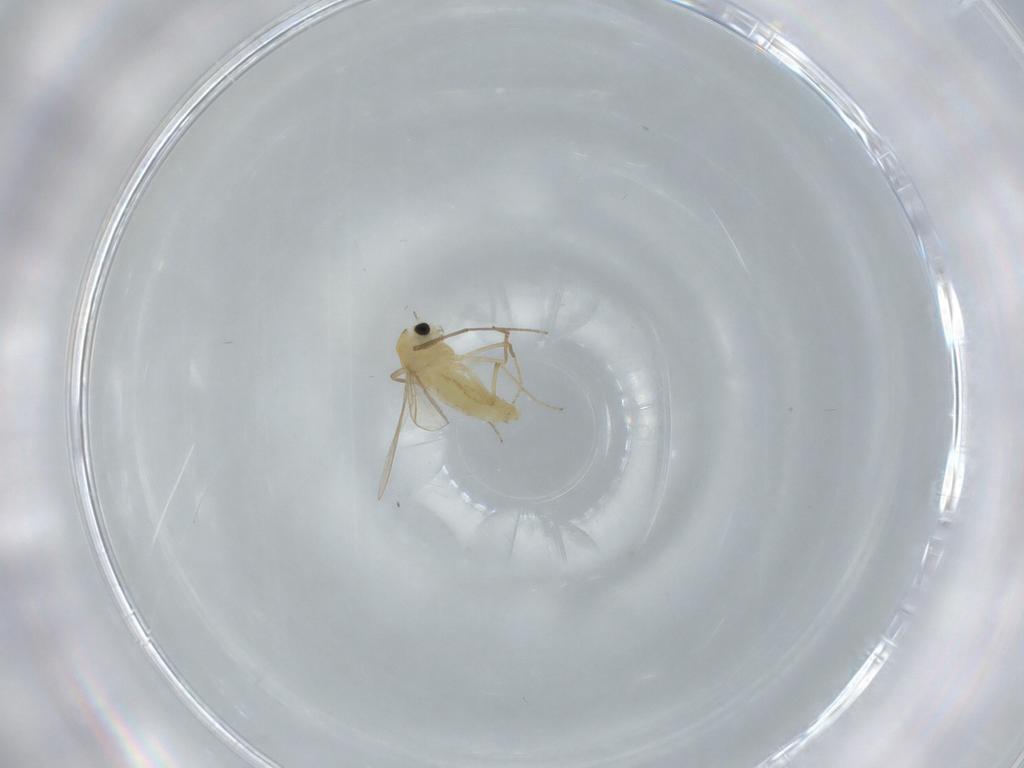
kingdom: Animalia
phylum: Arthropoda
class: Insecta
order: Diptera
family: Chironomidae
